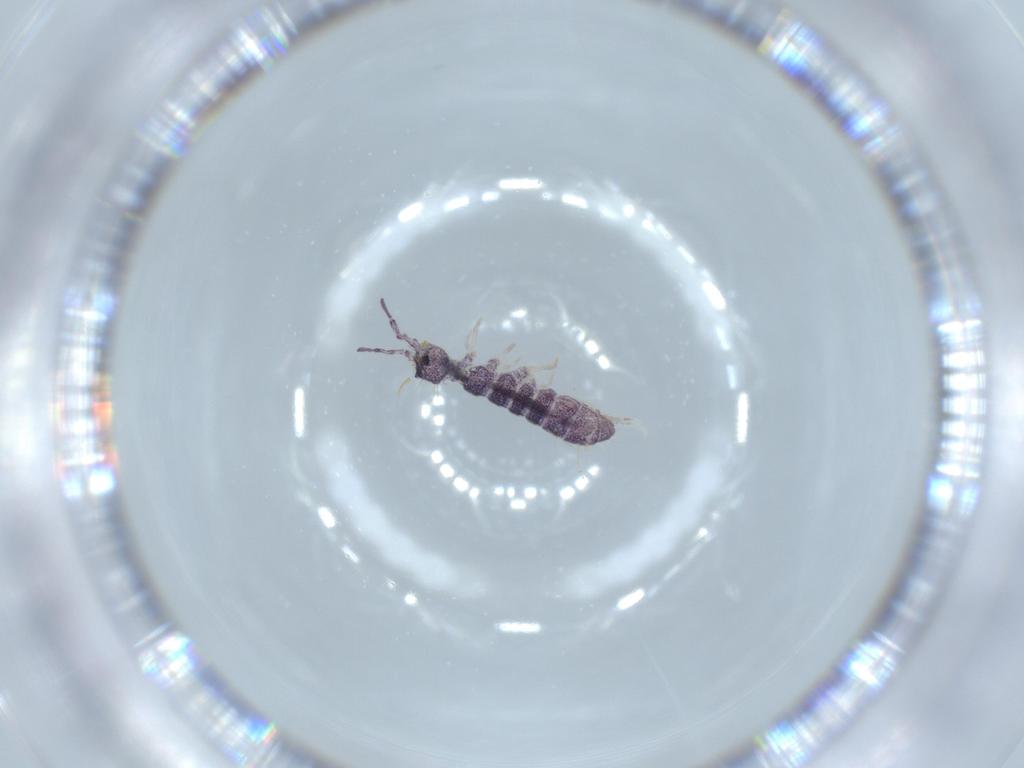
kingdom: Animalia
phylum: Arthropoda
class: Collembola
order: Entomobryomorpha
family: Isotomidae
